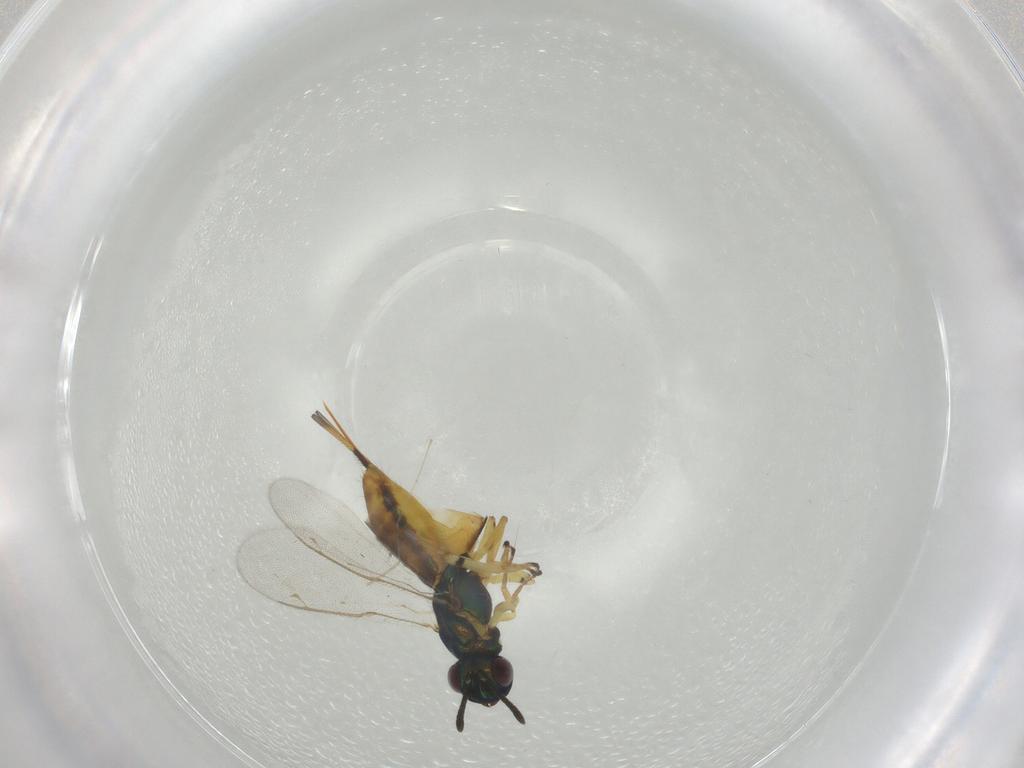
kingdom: Animalia
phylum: Arthropoda
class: Insecta
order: Hymenoptera
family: Eupelmidae
